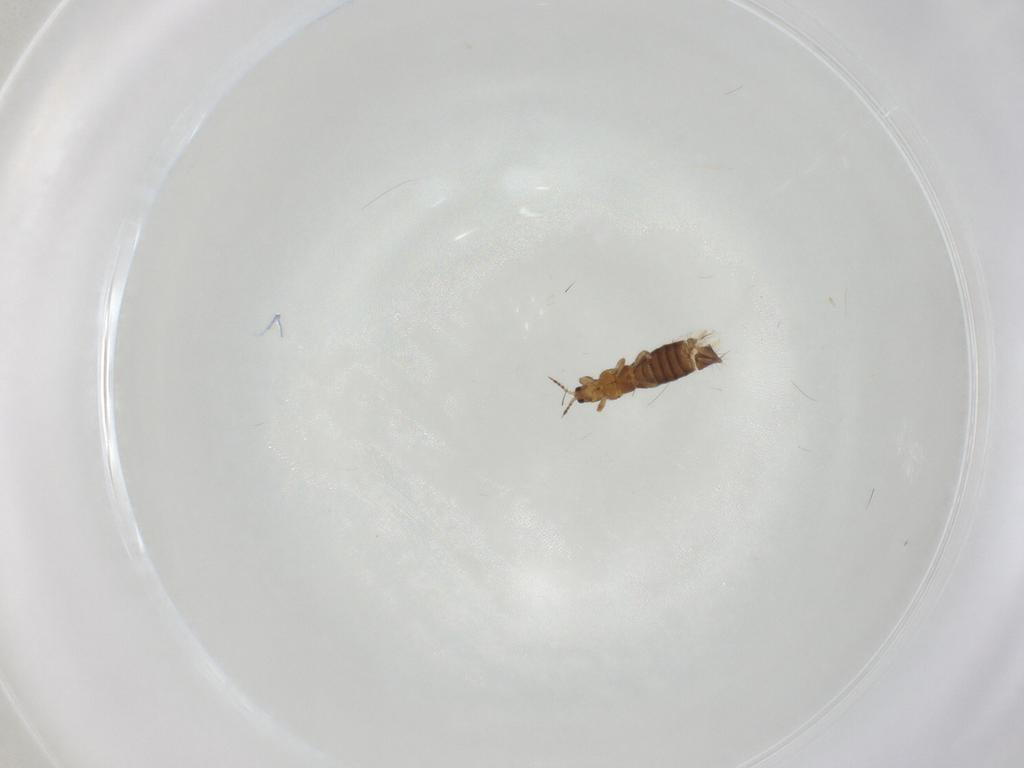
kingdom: Animalia
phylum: Arthropoda
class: Insecta
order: Thysanoptera
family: Thripidae
